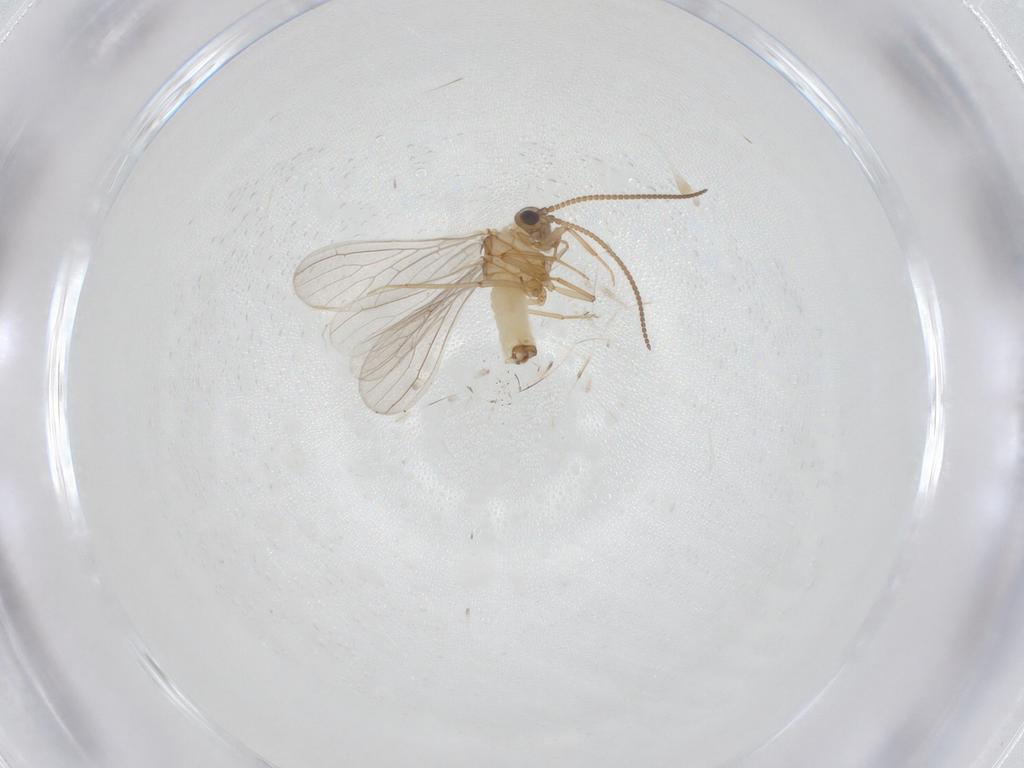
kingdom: Animalia
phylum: Arthropoda
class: Insecta
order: Neuroptera
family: Coniopterygidae
